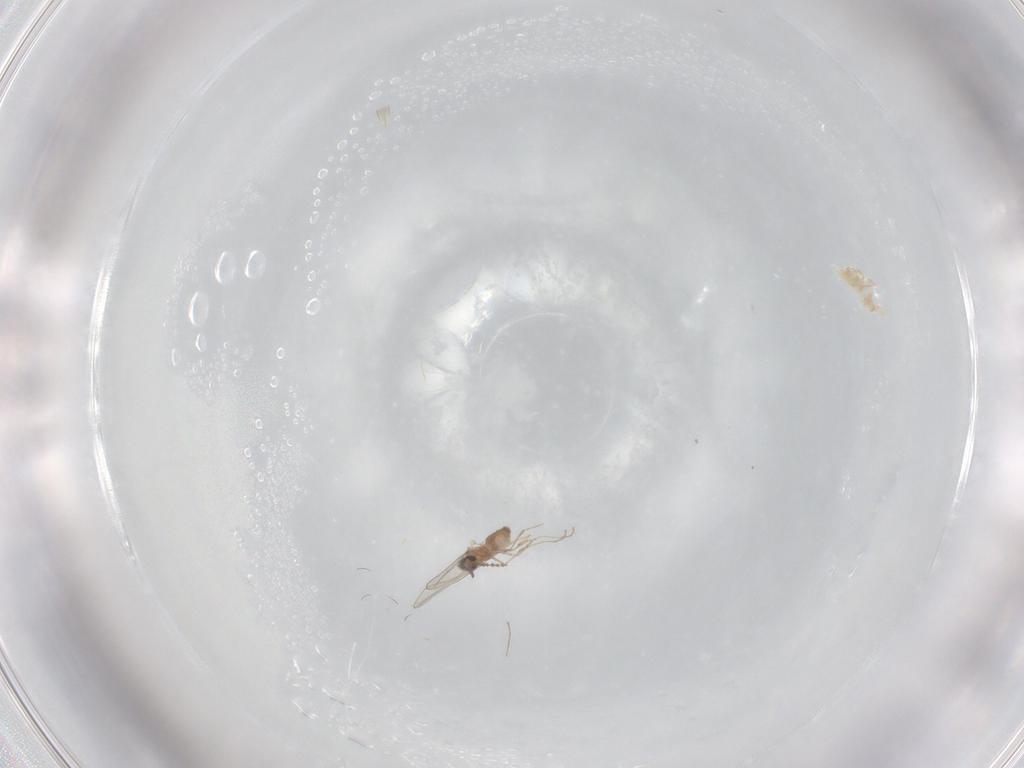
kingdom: Animalia
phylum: Arthropoda
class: Insecta
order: Diptera
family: Cecidomyiidae
